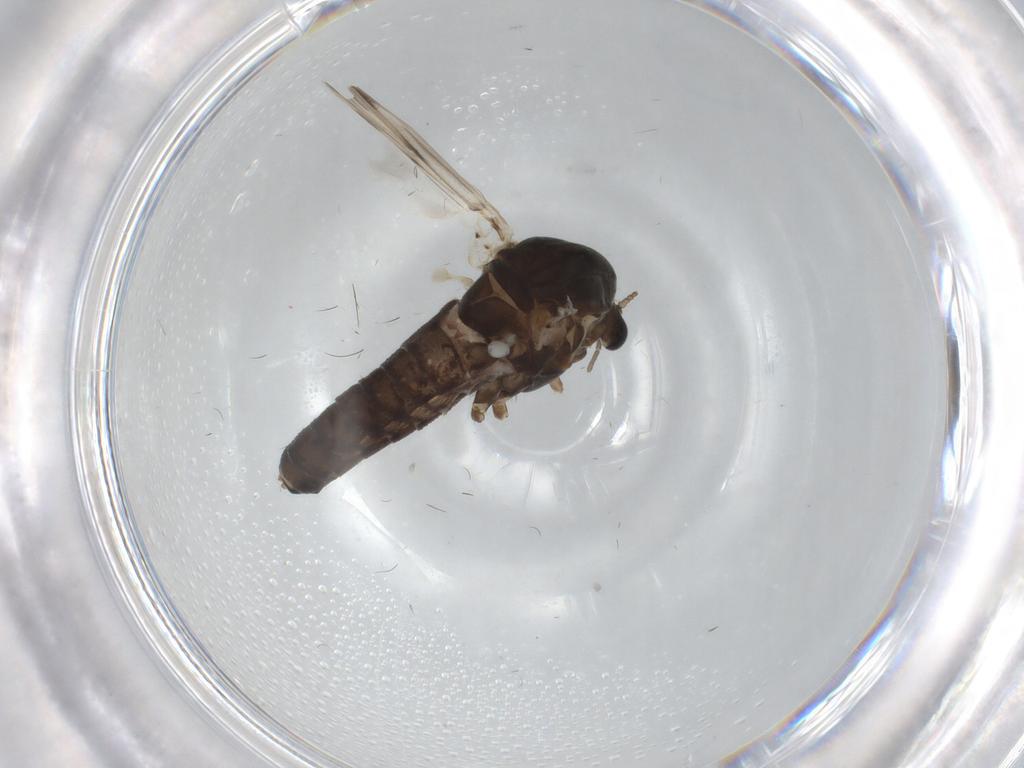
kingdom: Animalia
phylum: Arthropoda
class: Insecta
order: Diptera
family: Chironomidae
